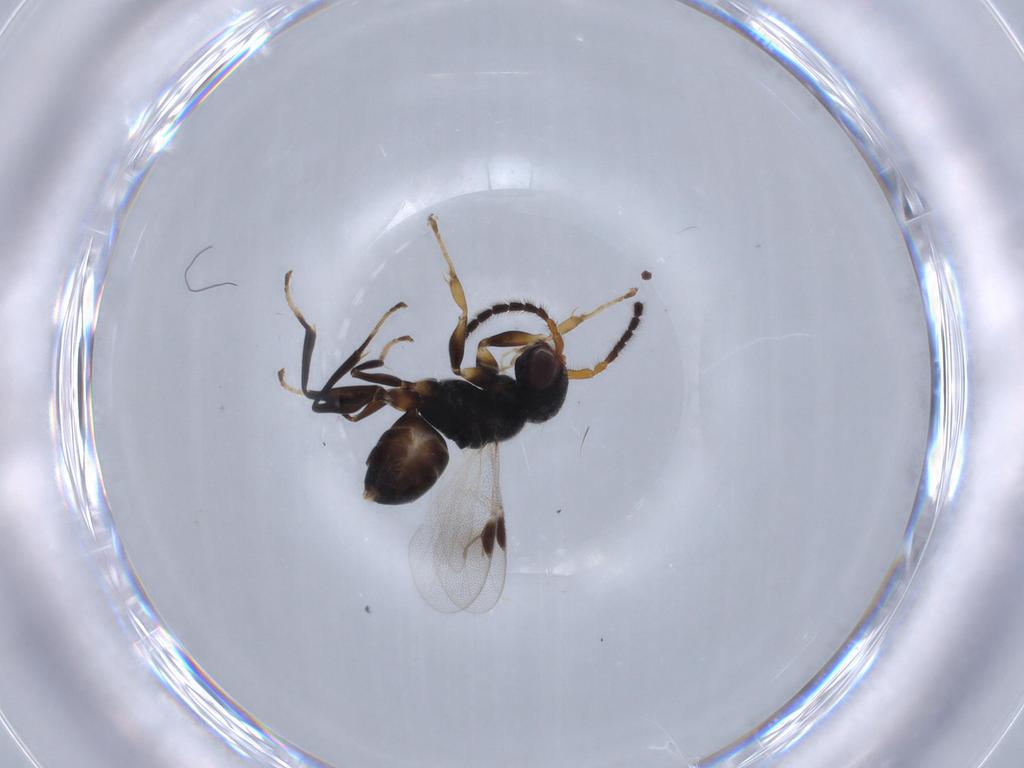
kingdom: Animalia
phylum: Arthropoda
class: Insecta
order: Hymenoptera
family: Dryinidae
